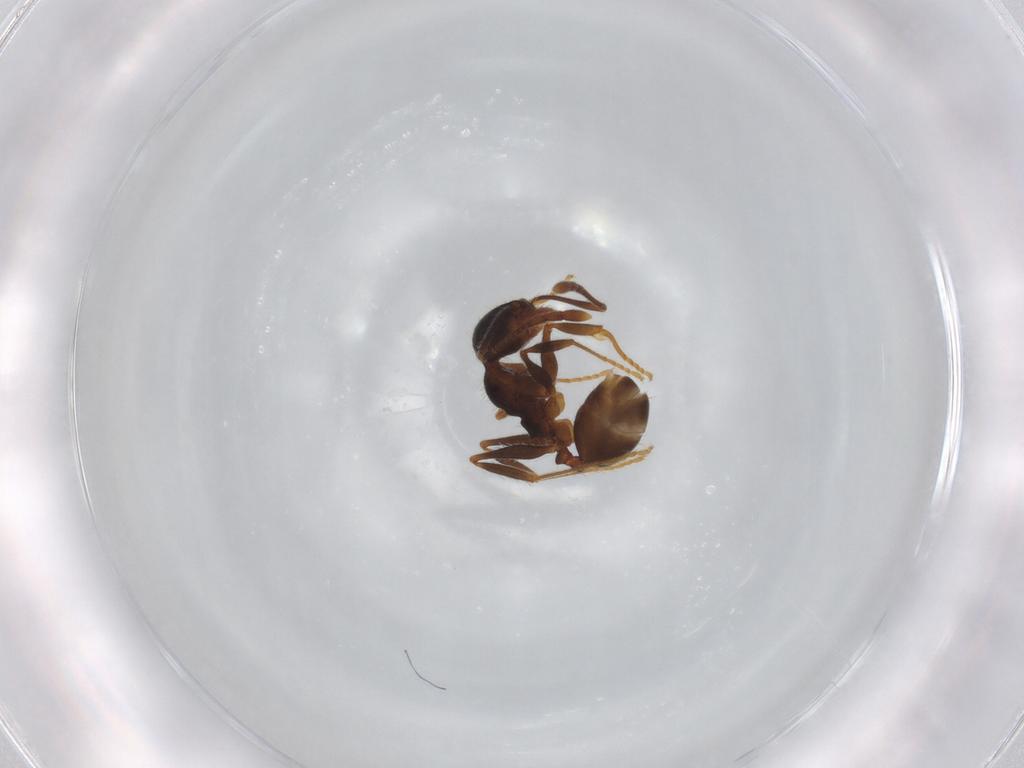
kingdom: Animalia
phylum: Arthropoda
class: Insecta
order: Hymenoptera
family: Formicidae
